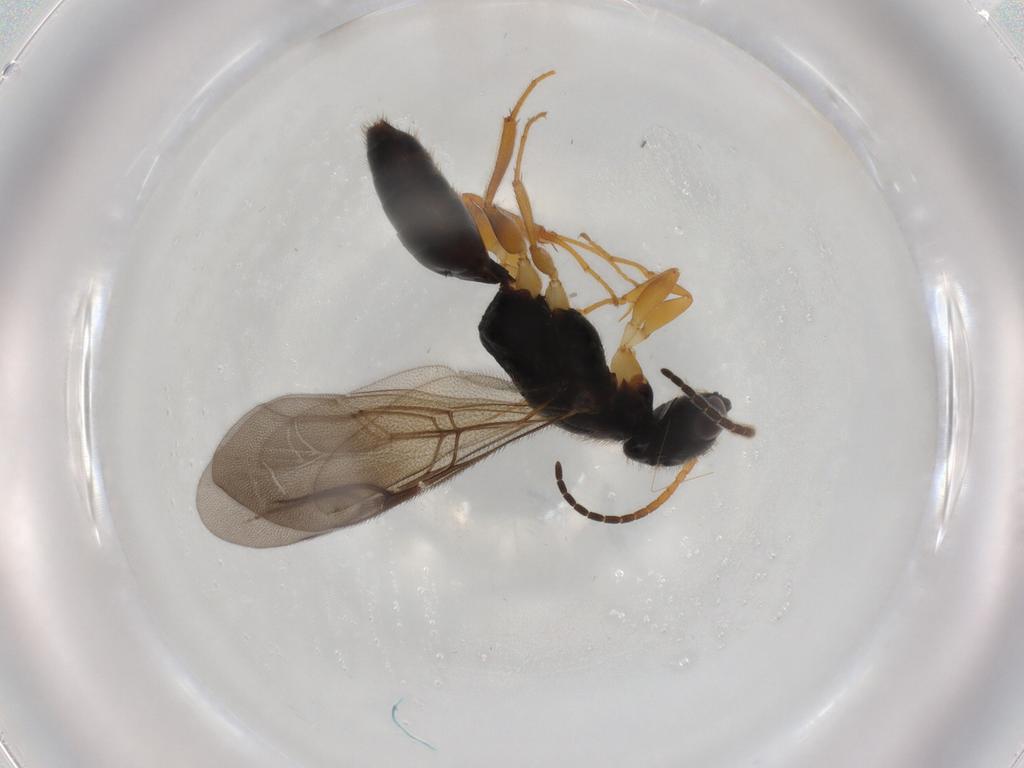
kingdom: Animalia
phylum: Arthropoda
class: Insecta
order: Hymenoptera
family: Bethylidae
